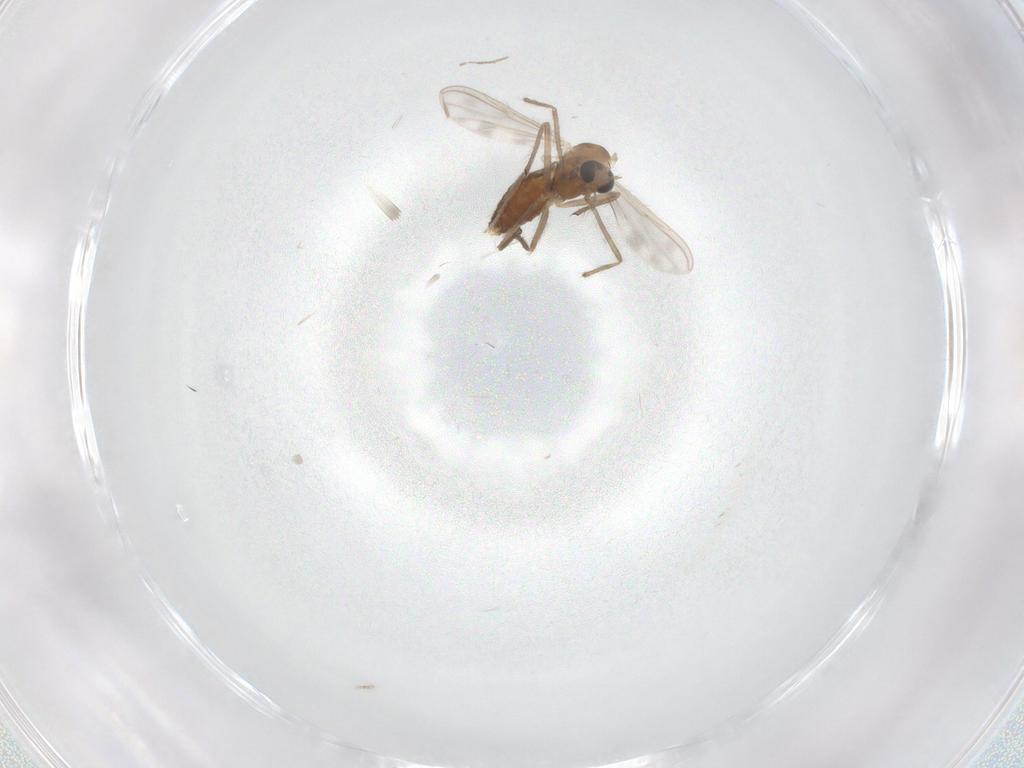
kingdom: Animalia
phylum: Arthropoda
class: Insecta
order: Diptera
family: Chironomidae
